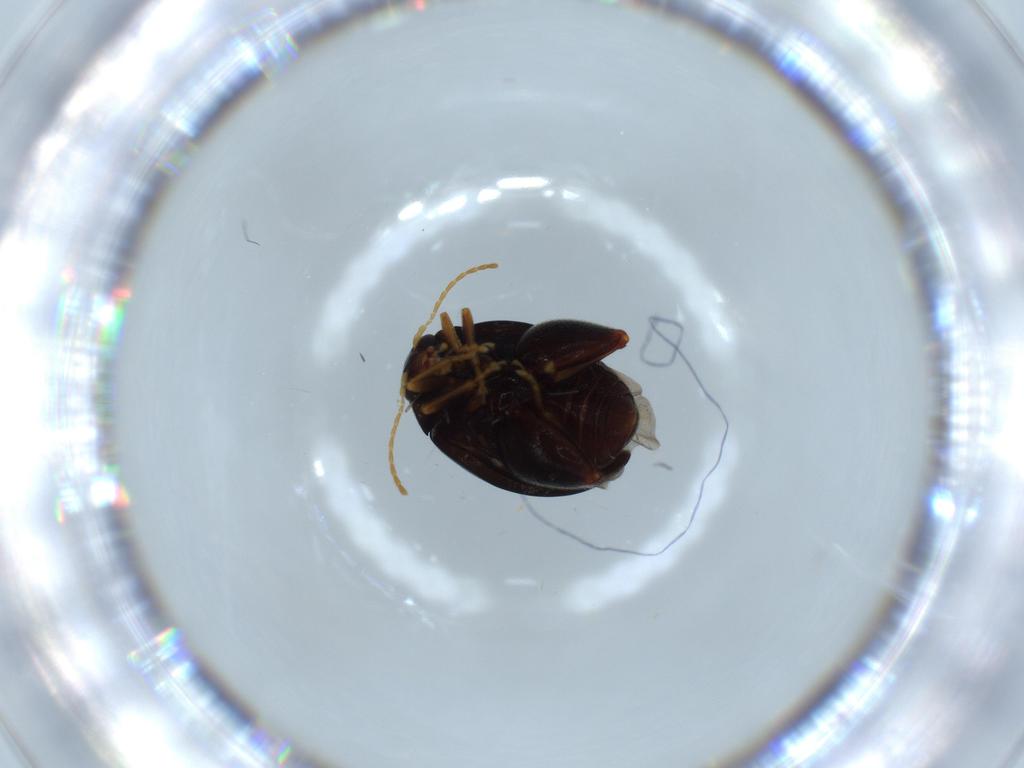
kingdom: Animalia
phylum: Arthropoda
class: Insecta
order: Coleoptera
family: Chrysomelidae
